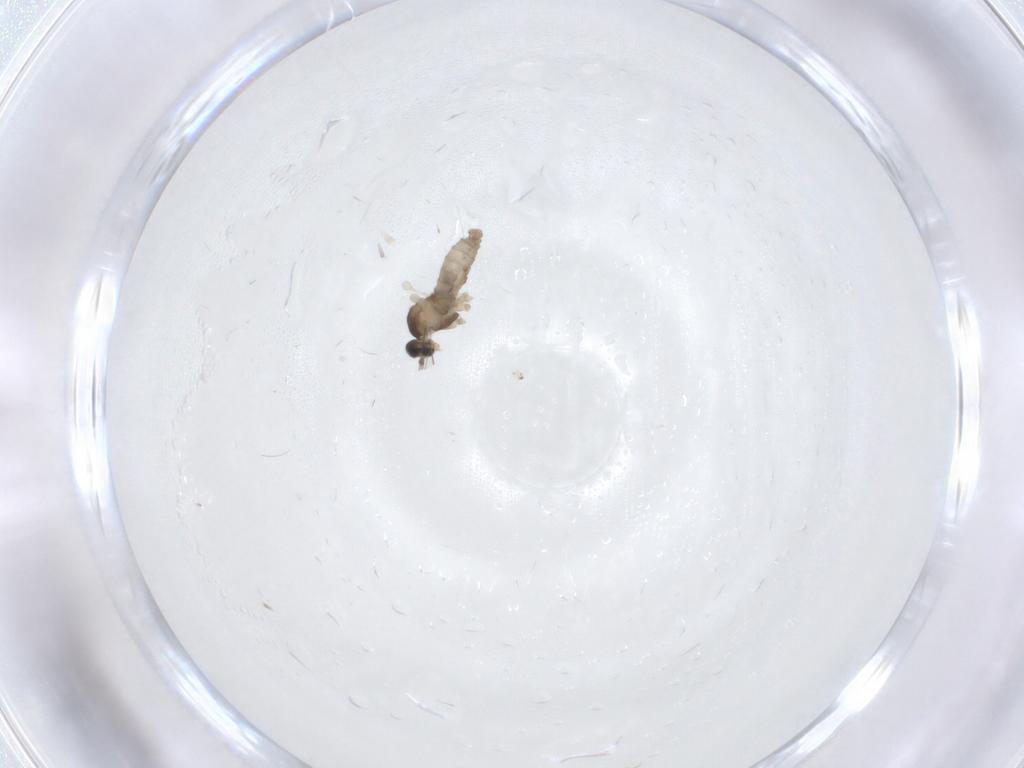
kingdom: Animalia
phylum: Arthropoda
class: Insecta
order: Diptera
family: Limoniidae
